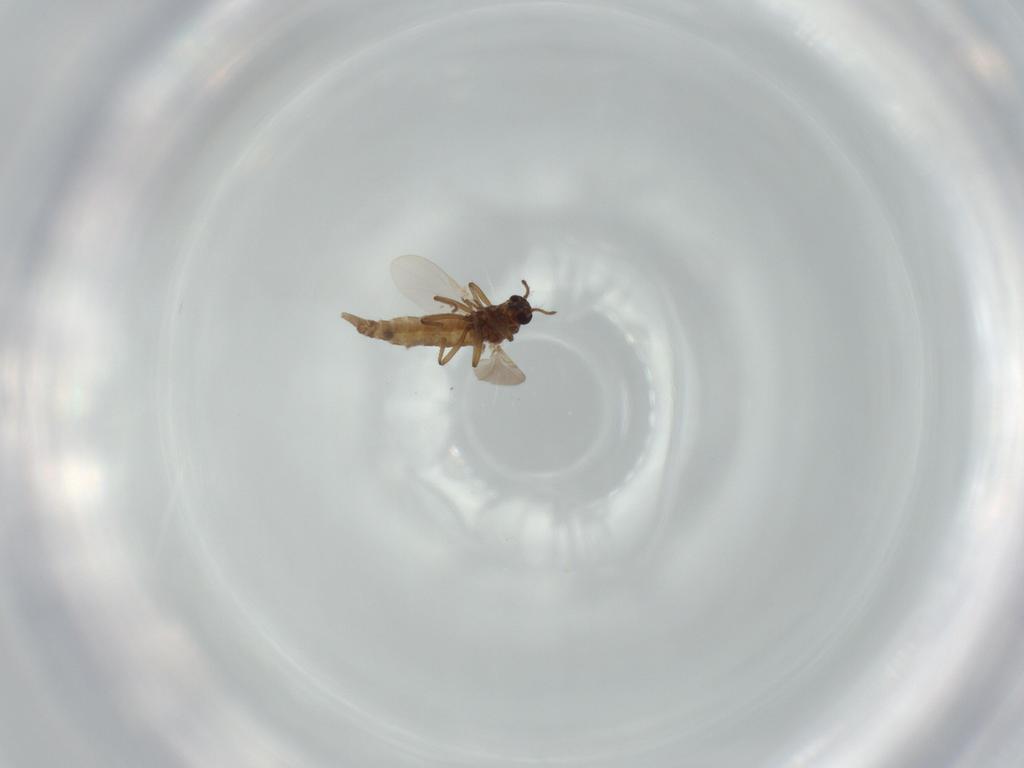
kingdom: Animalia
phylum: Arthropoda
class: Insecta
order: Diptera
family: Ceratopogonidae
